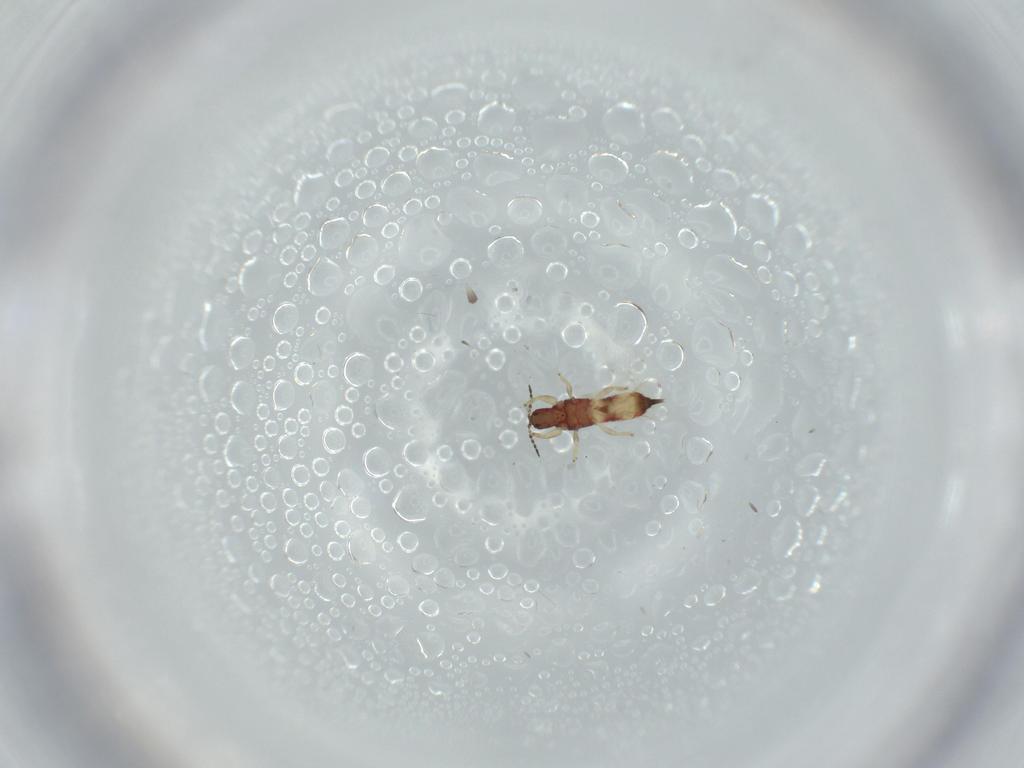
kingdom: Animalia
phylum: Arthropoda
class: Insecta
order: Thysanoptera
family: Phlaeothripidae
